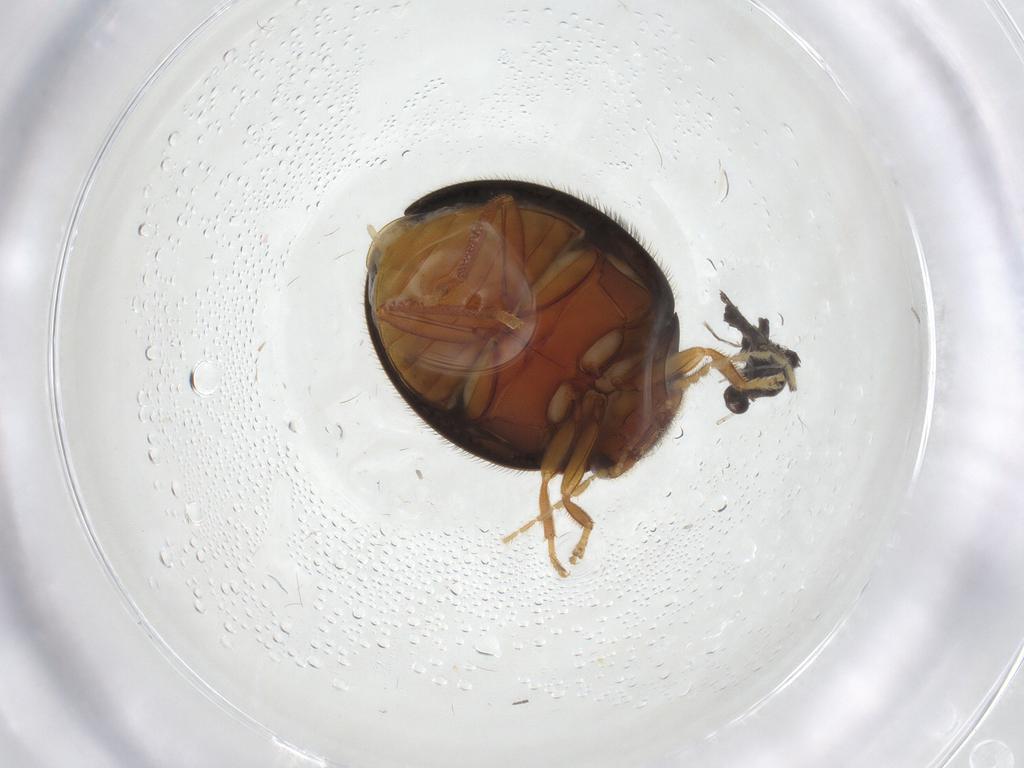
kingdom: Animalia
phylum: Arthropoda
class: Insecta
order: Coleoptera
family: Scirtidae
